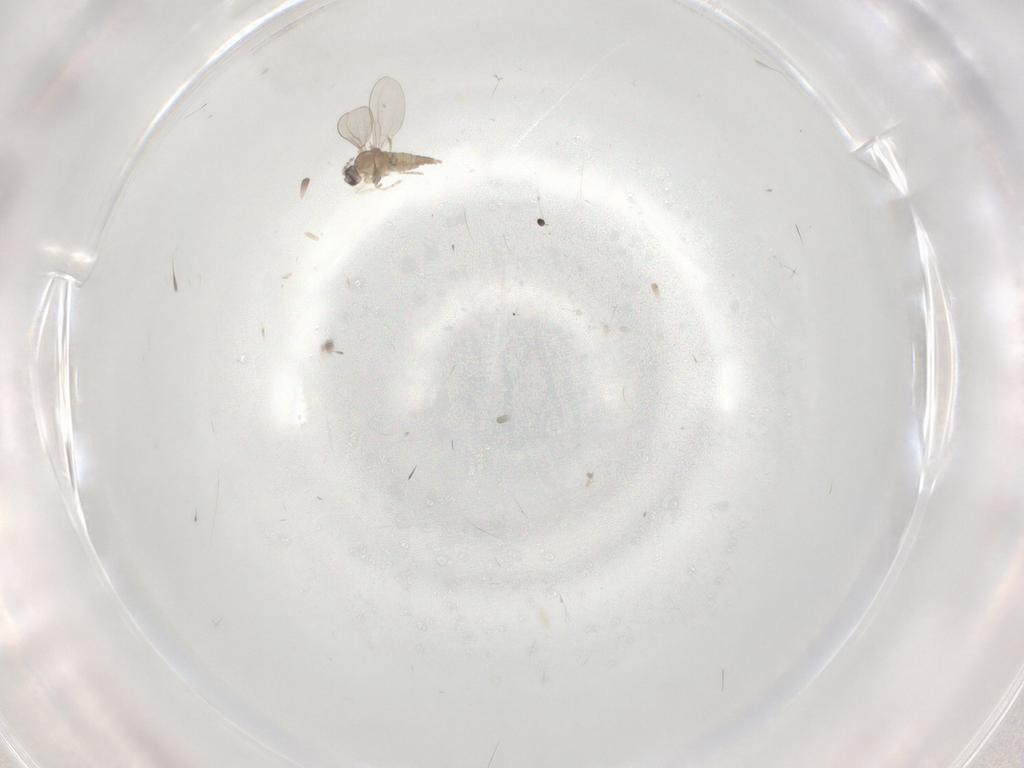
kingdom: Animalia
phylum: Arthropoda
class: Insecta
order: Diptera
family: Cecidomyiidae
